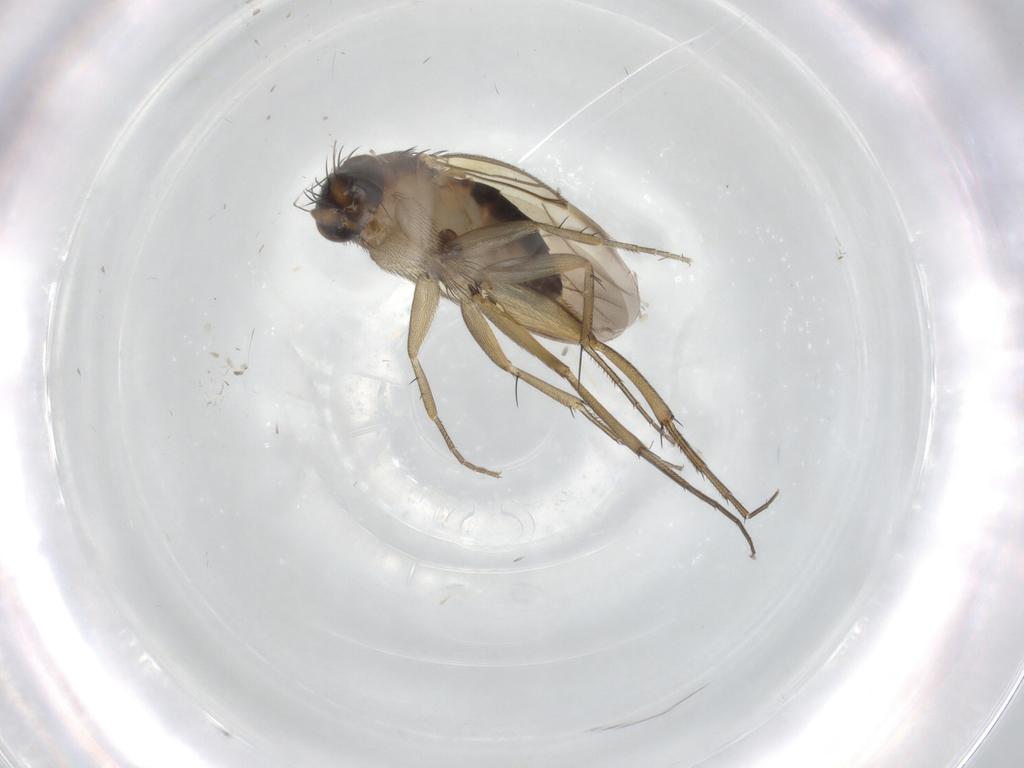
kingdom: Animalia
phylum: Arthropoda
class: Insecta
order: Diptera
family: Phoridae
